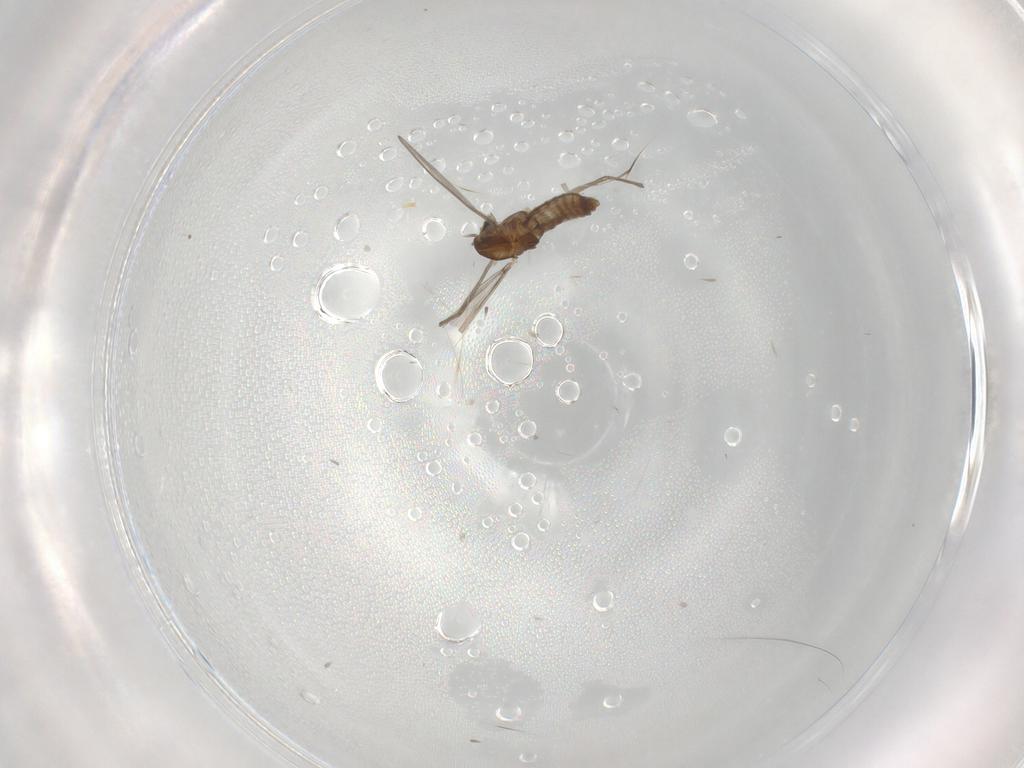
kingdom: Animalia
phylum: Arthropoda
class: Insecta
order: Diptera
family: Chironomidae
